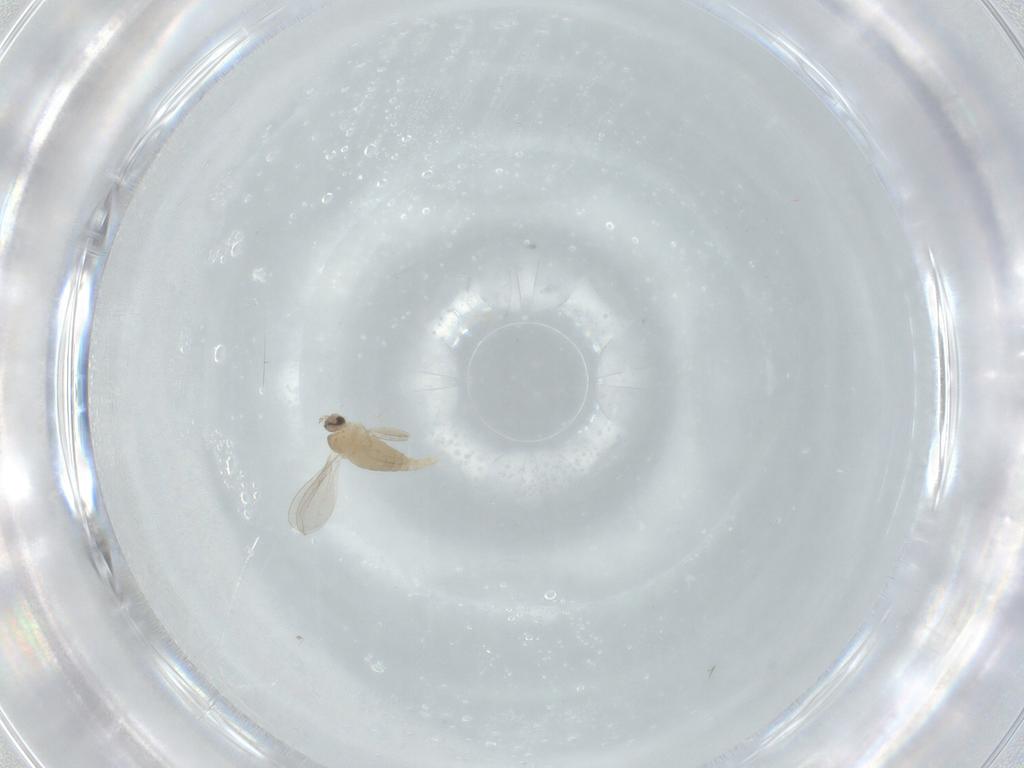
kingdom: Animalia
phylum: Arthropoda
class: Insecta
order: Diptera
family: Cecidomyiidae
